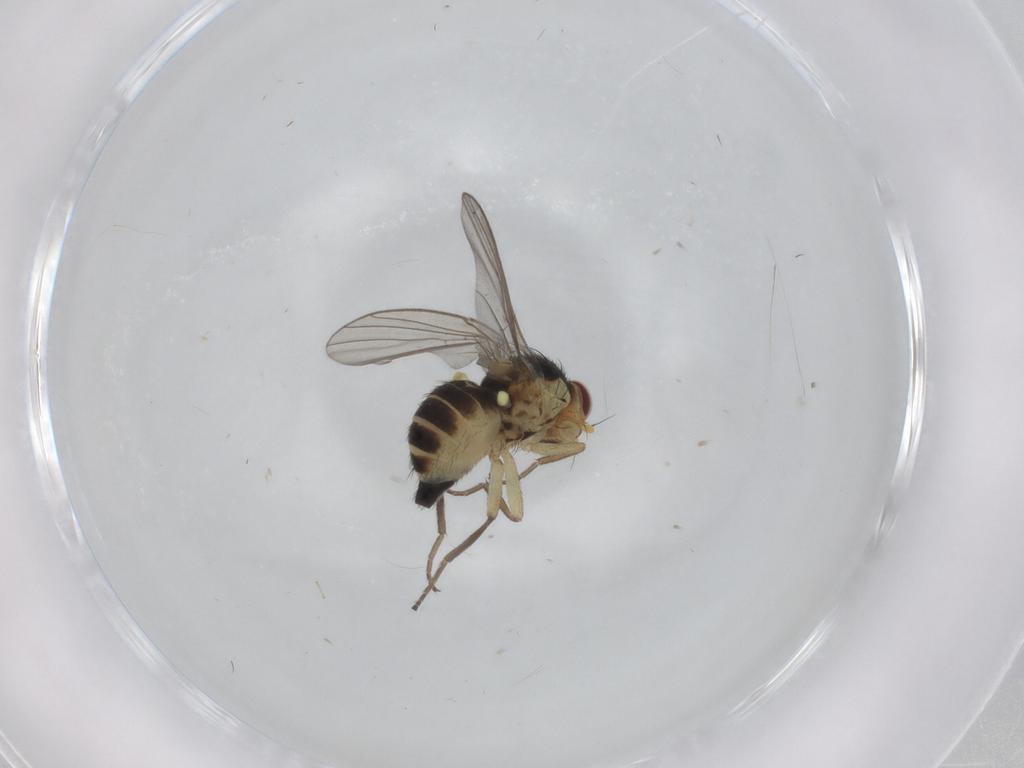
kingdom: Animalia
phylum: Arthropoda
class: Insecta
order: Diptera
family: Agromyzidae
